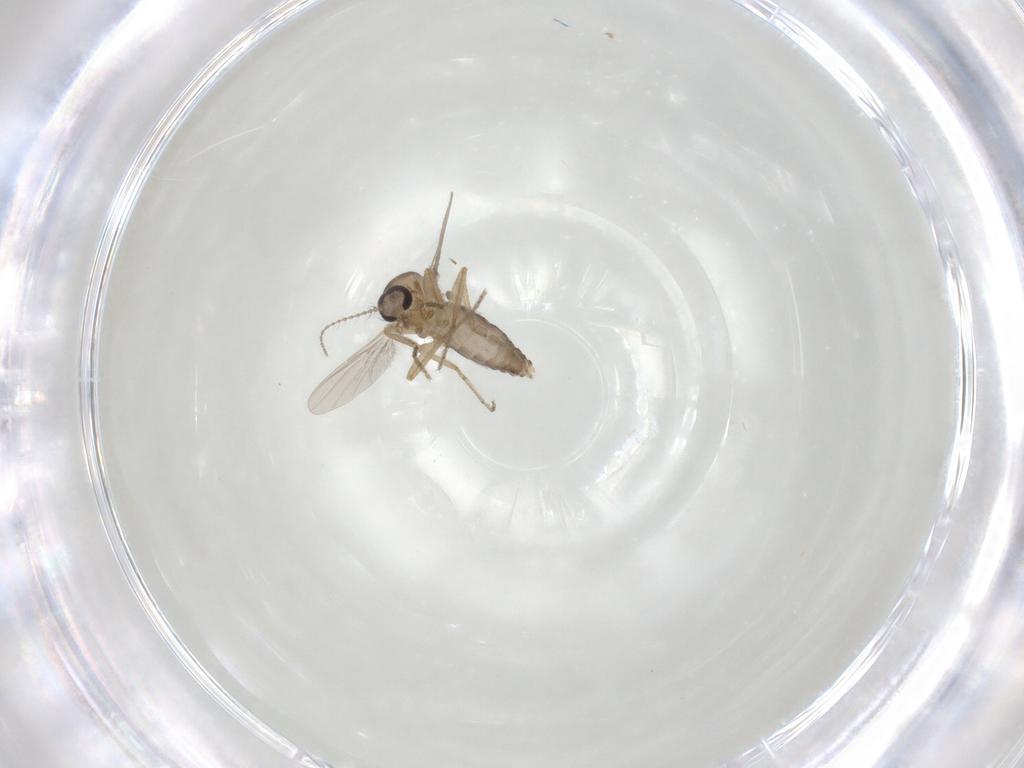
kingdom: Animalia
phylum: Arthropoda
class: Insecta
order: Diptera
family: Ceratopogonidae
